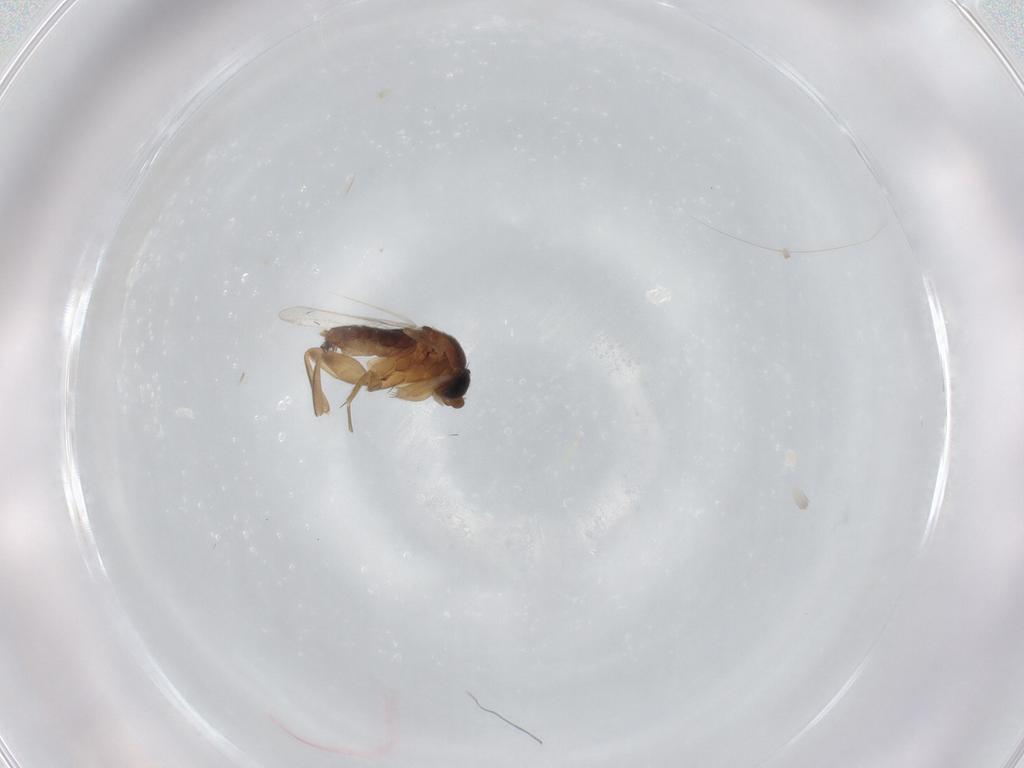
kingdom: Animalia
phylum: Arthropoda
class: Insecta
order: Diptera
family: Phoridae
